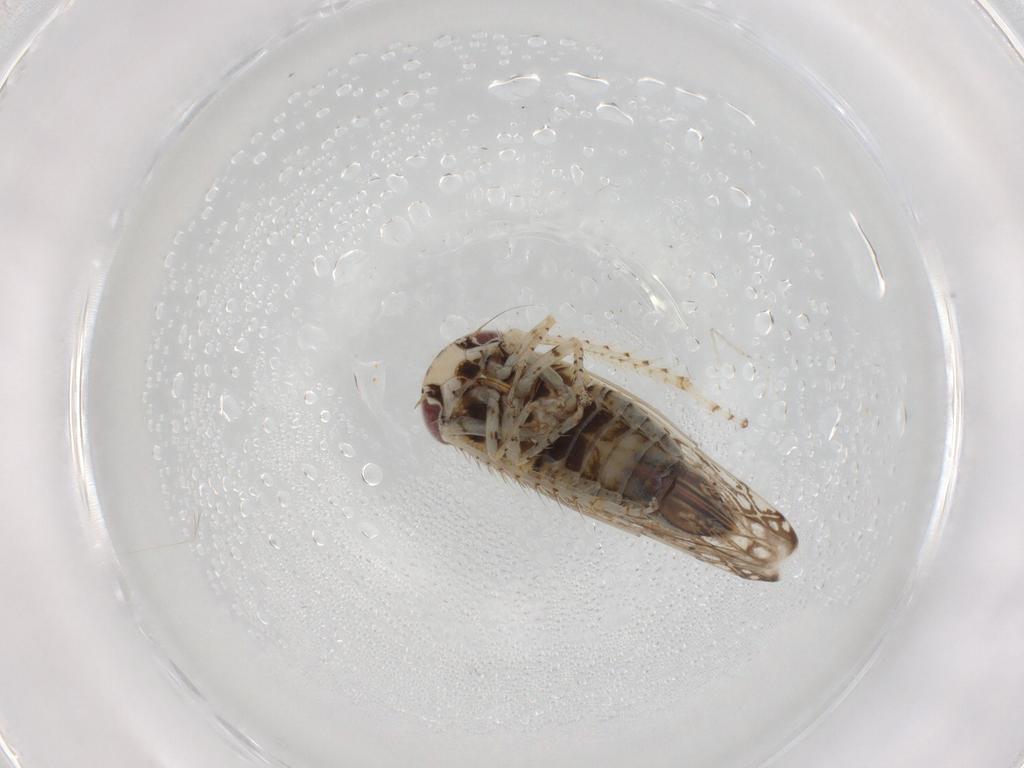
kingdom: Animalia
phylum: Arthropoda
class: Insecta
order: Hemiptera
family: Cicadellidae
